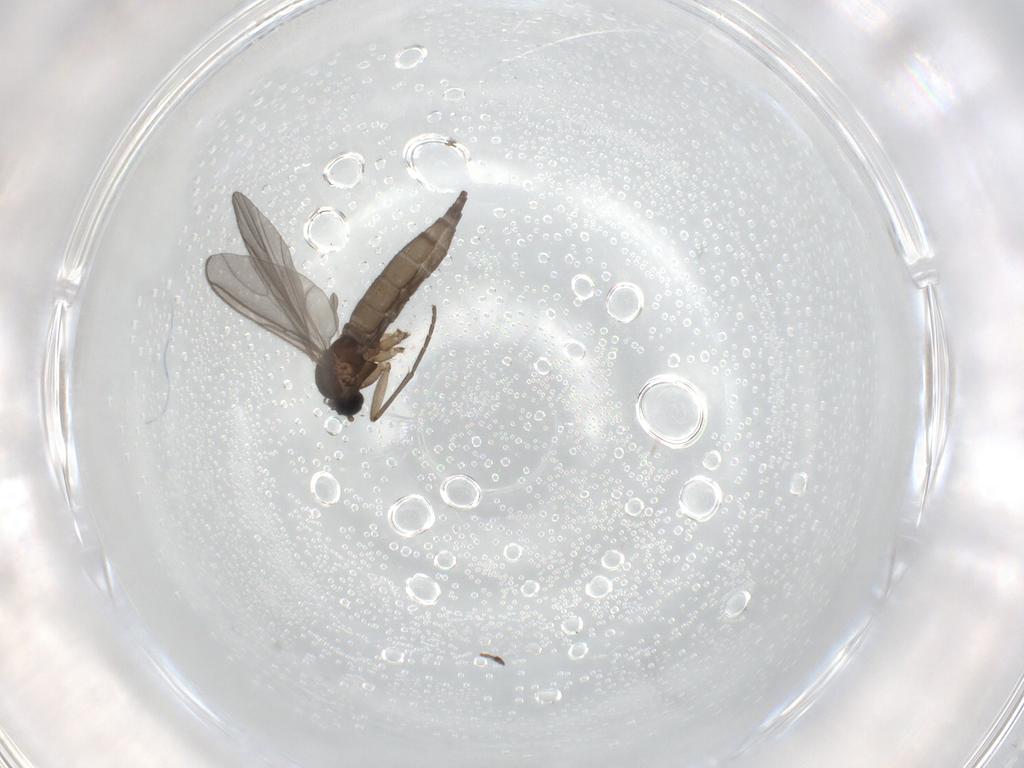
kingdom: Animalia
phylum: Arthropoda
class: Insecta
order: Diptera
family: Sciaridae
